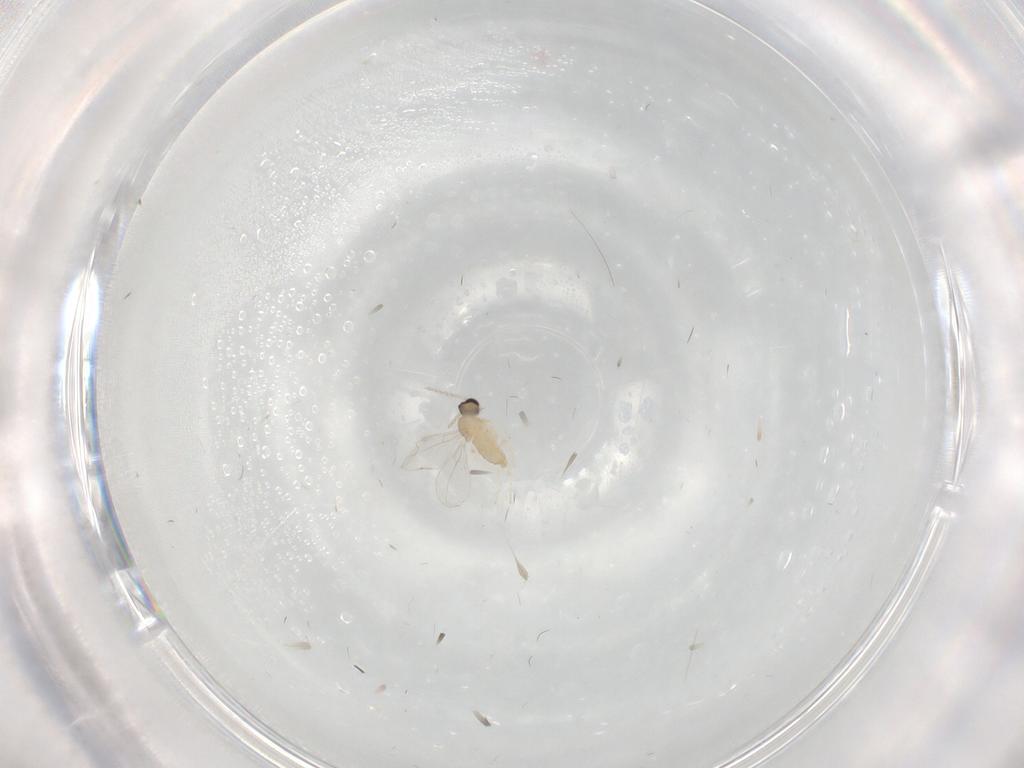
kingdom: Animalia
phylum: Arthropoda
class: Insecta
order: Diptera
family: Cecidomyiidae
